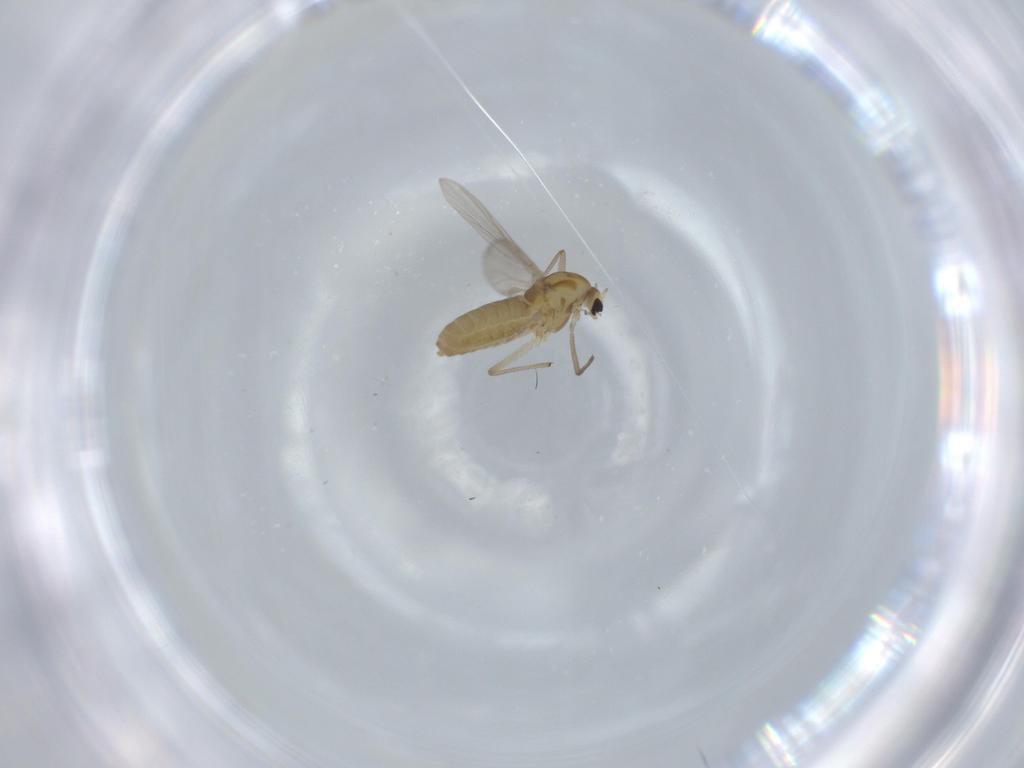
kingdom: Animalia
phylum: Arthropoda
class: Insecta
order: Diptera
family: Chironomidae
